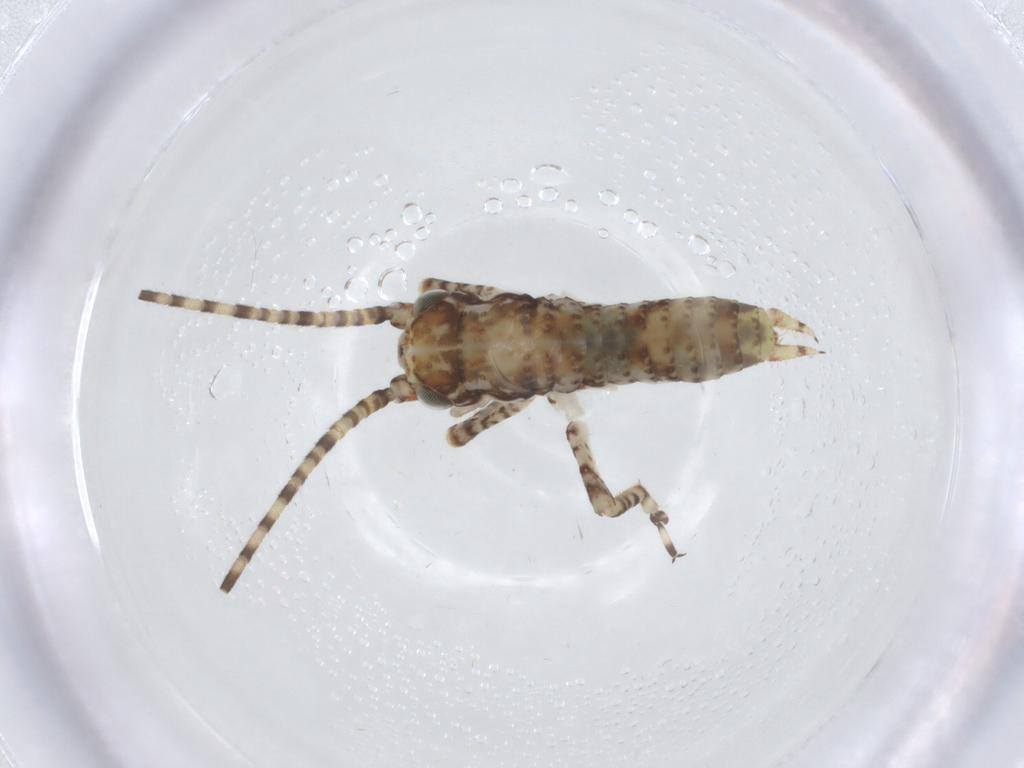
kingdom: Animalia
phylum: Arthropoda
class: Insecta
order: Orthoptera
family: Gryllidae
